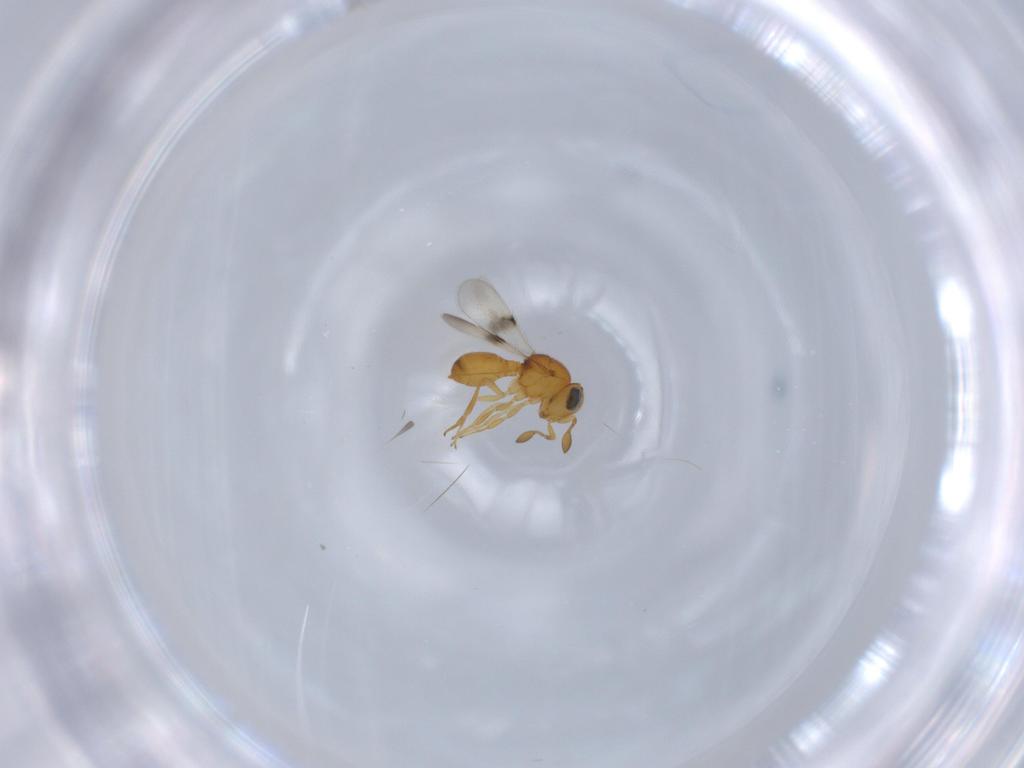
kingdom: Animalia
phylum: Arthropoda
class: Insecta
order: Hymenoptera
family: Scelionidae
